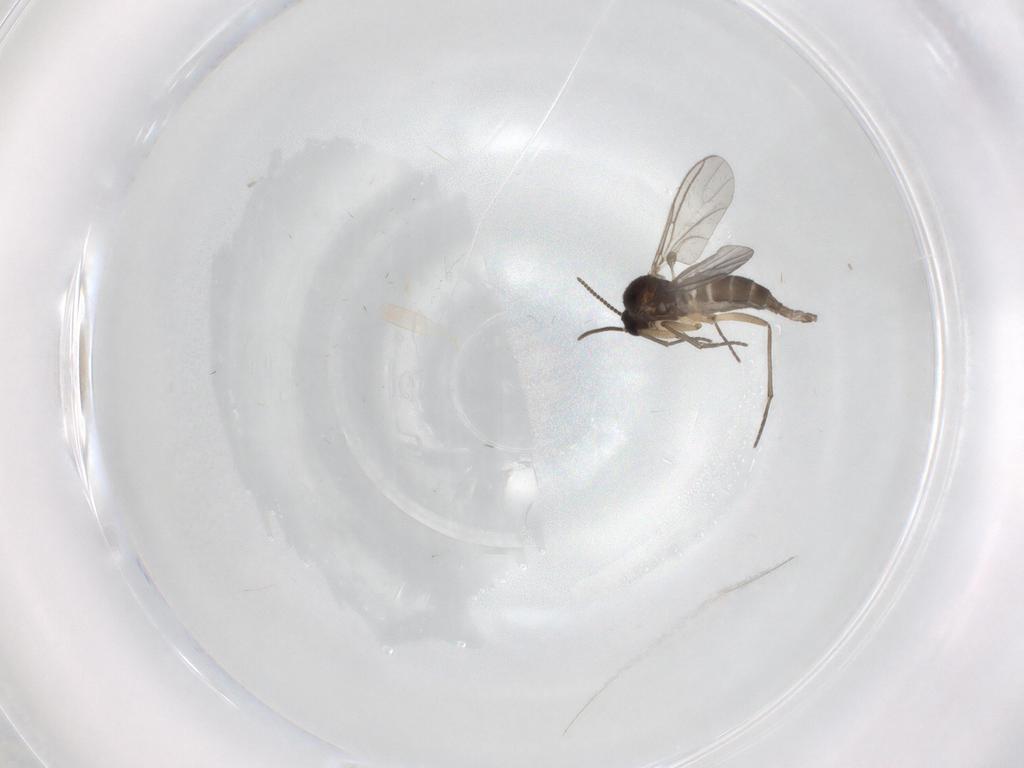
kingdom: Animalia
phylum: Arthropoda
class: Insecta
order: Diptera
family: Sciaridae
